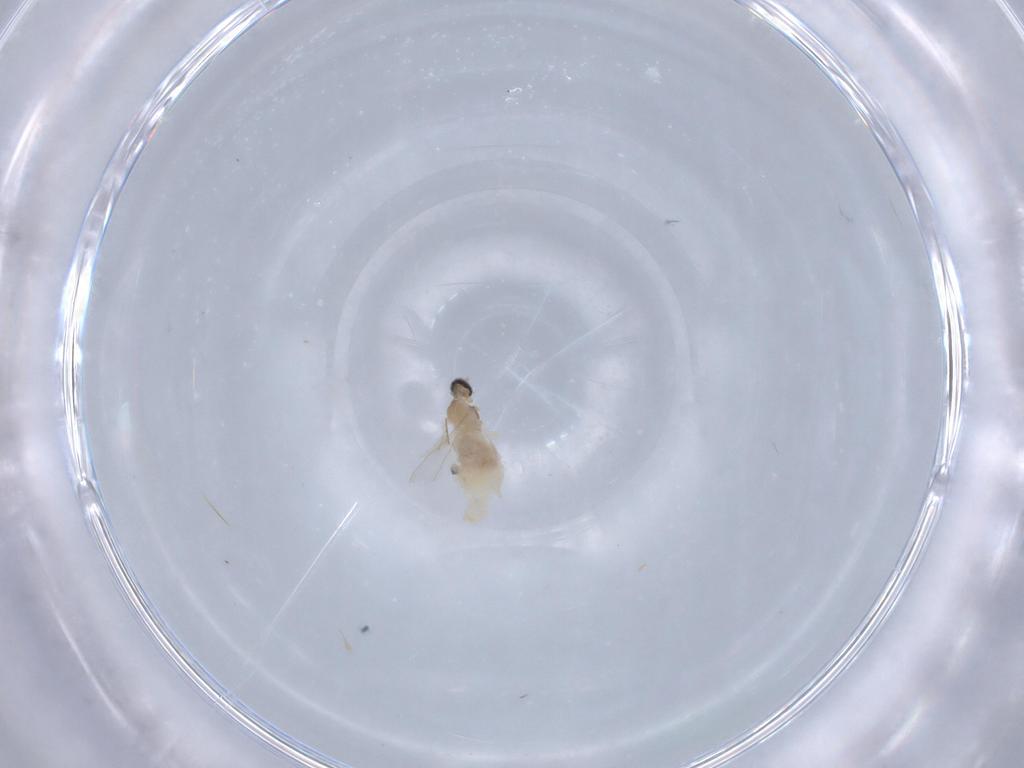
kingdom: Animalia
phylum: Arthropoda
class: Insecta
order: Diptera
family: Cecidomyiidae
